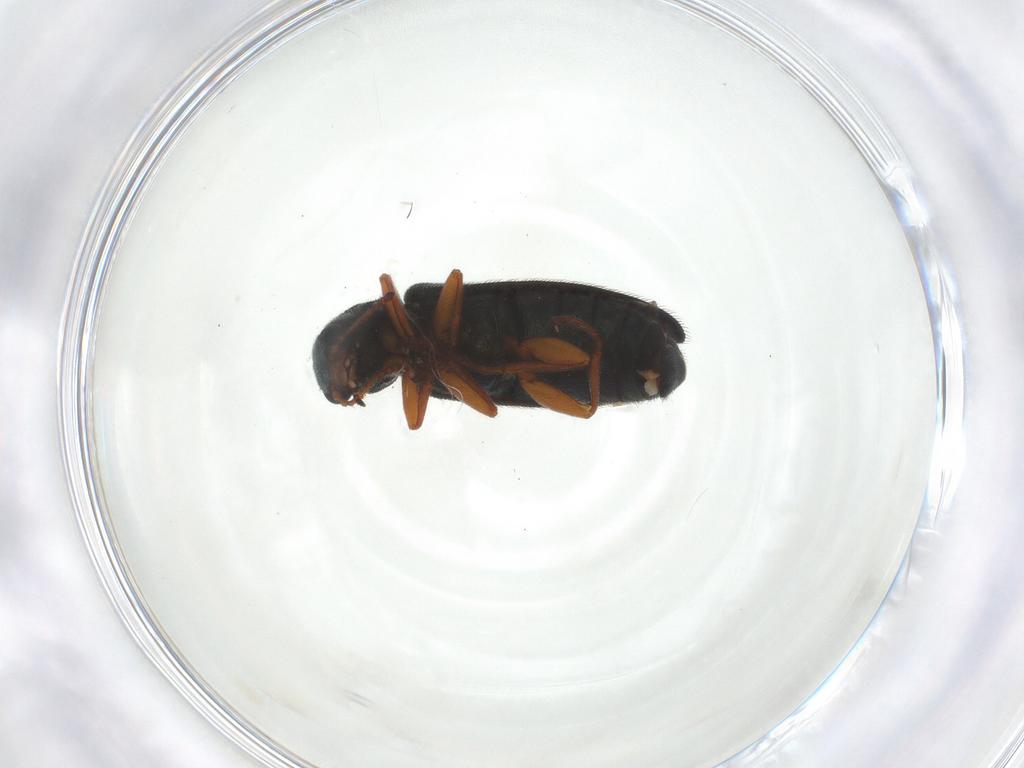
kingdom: Animalia
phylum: Arthropoda
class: Insecta
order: Coleoptera
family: Melyridae
